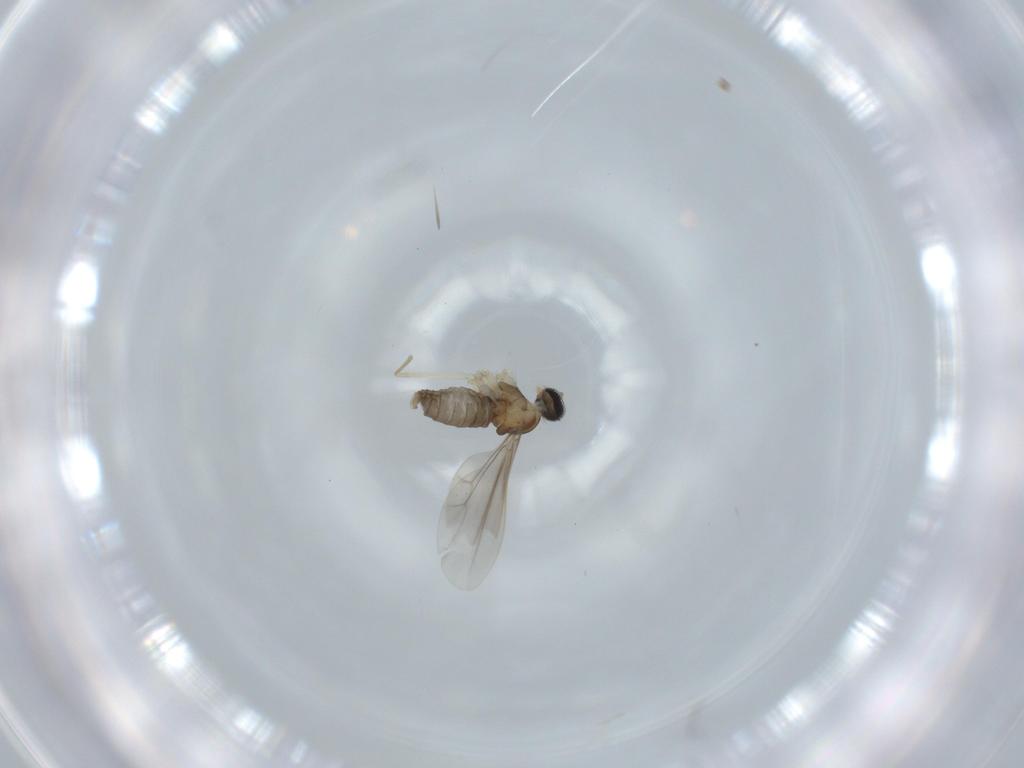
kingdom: Animalia
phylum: Arthropoda
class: Insecta
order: Diptera
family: Cecidomyiidae
